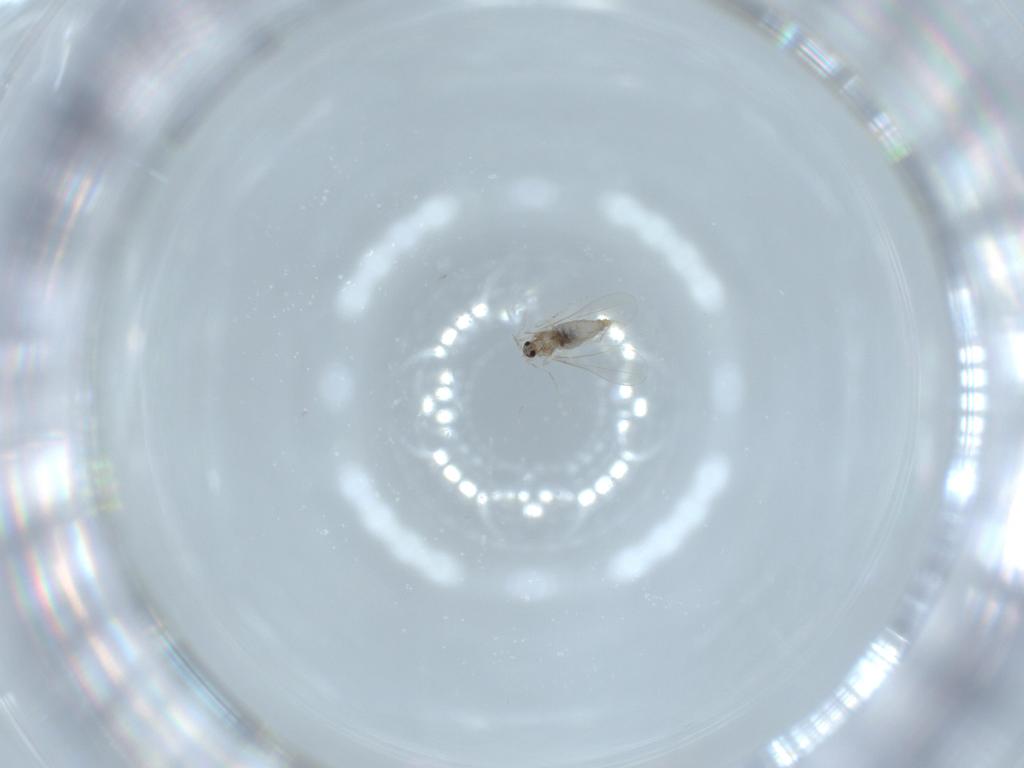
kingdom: Animalia
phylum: Arthropoda
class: Insecta
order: Diptera
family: Cecidomyiidae
